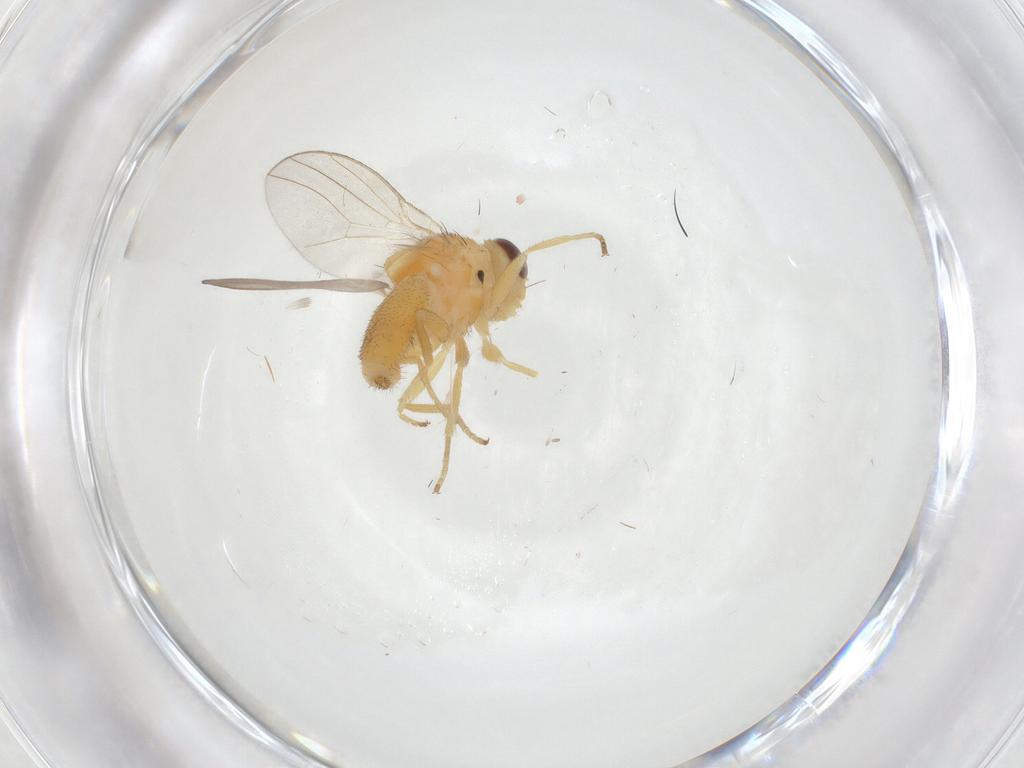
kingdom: Animalia
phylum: Arthropoda
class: Insecta
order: Diptera
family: Chloropidae
